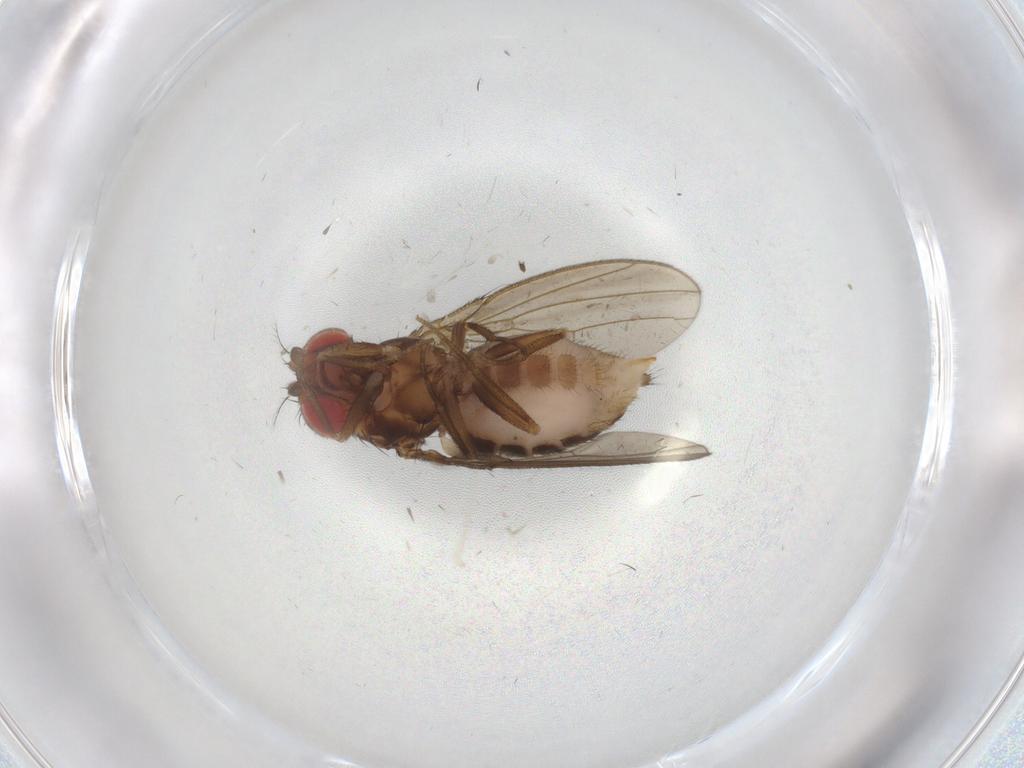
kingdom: Animalia
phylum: Arthropoda
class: Insecta
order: Diptera
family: Cecidomyiidae
